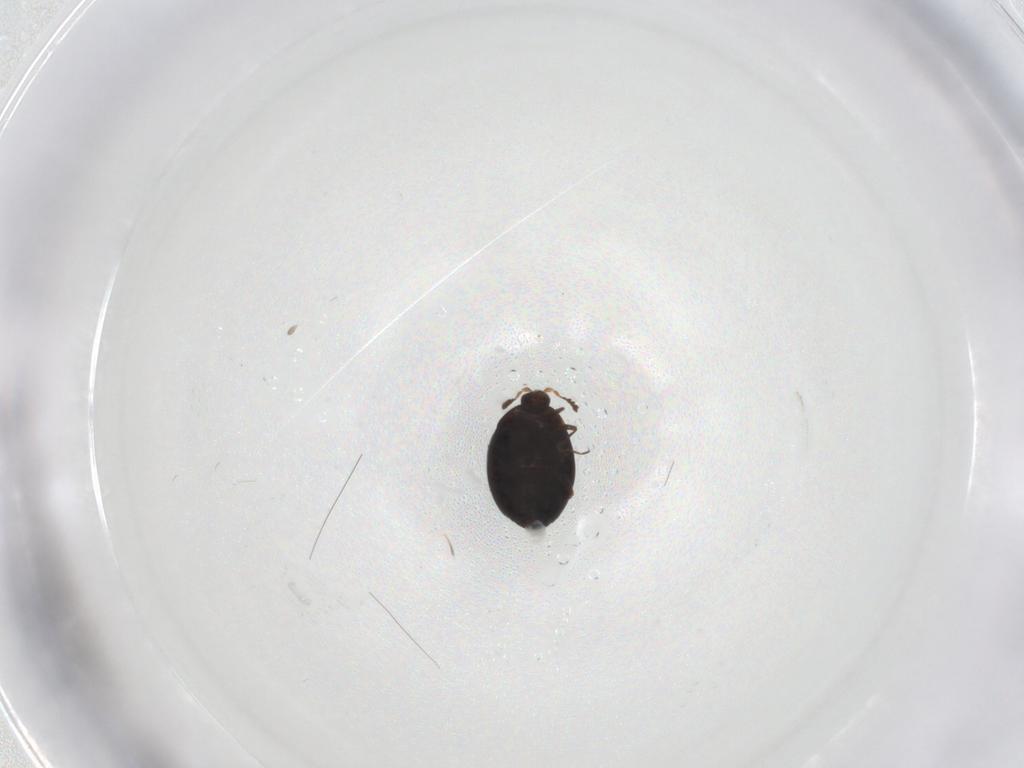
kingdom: Animalia
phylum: Arthropoda
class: Insecta
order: Coleoptera
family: Corylophidae
